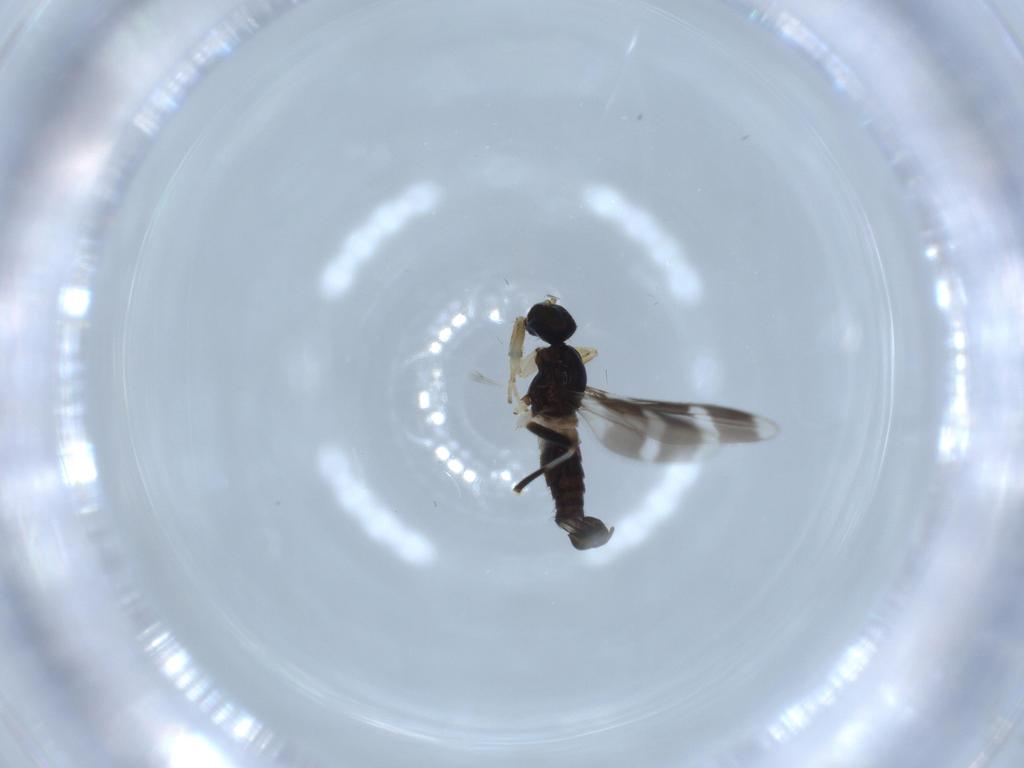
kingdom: Animalia
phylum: Arthropoda
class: Insecta
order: Diptera
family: Hybotidae
